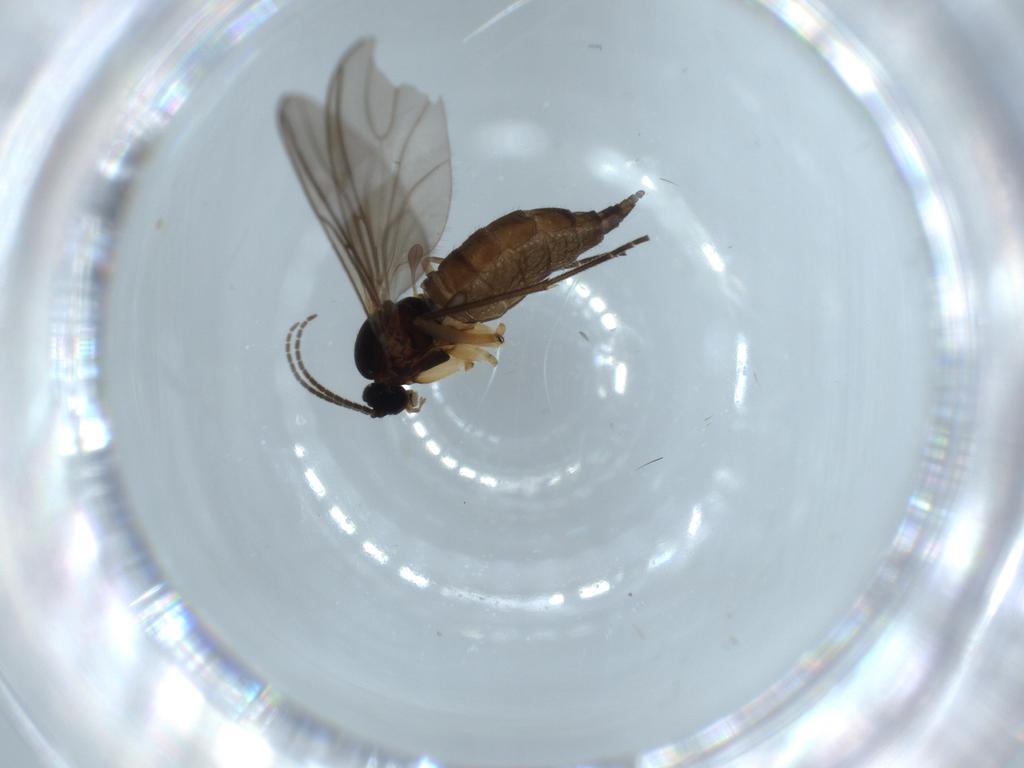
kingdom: Animalia
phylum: Arthropoda
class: Insecta
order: Diptera
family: Sciaridae
